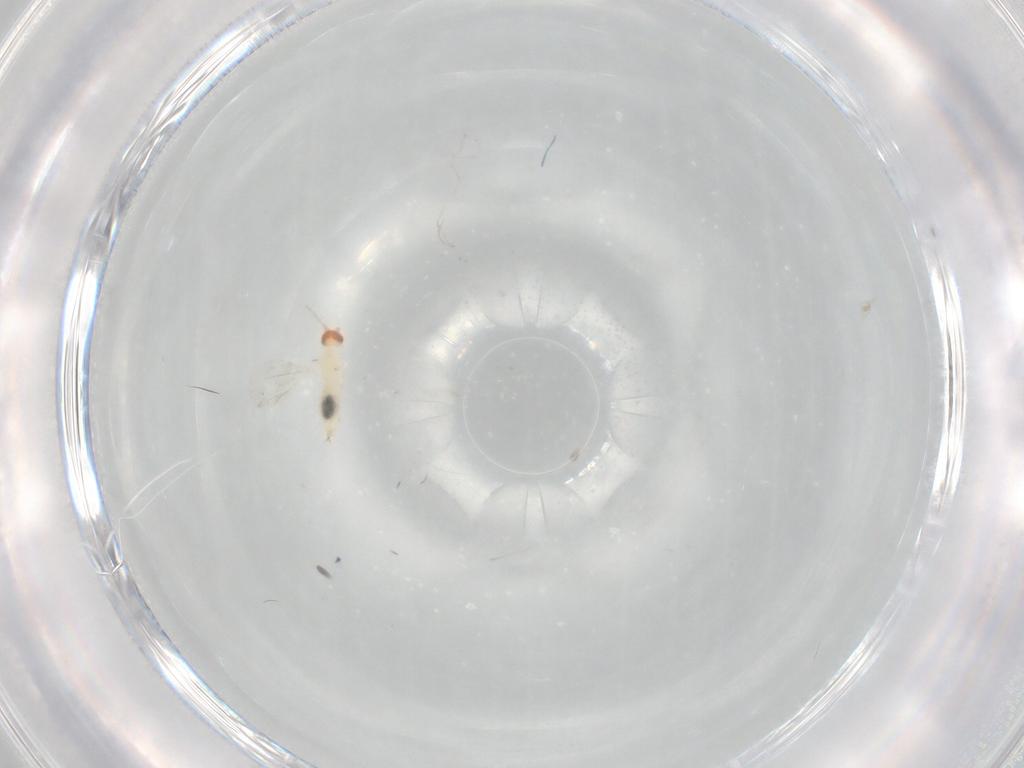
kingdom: Animalia
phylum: Arthropoda
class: Insecta
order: Diptera
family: Cecidomyiidae
